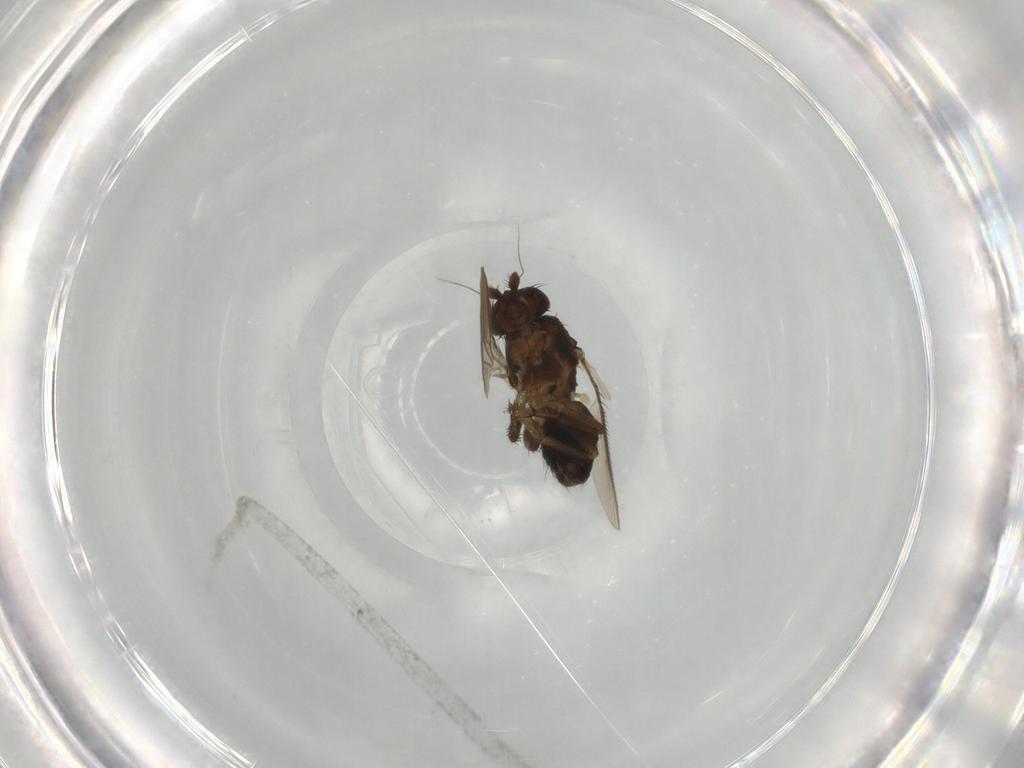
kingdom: Animalia
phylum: Arthropoda
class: Insecta
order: Diptera
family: Sphaeroceridae
